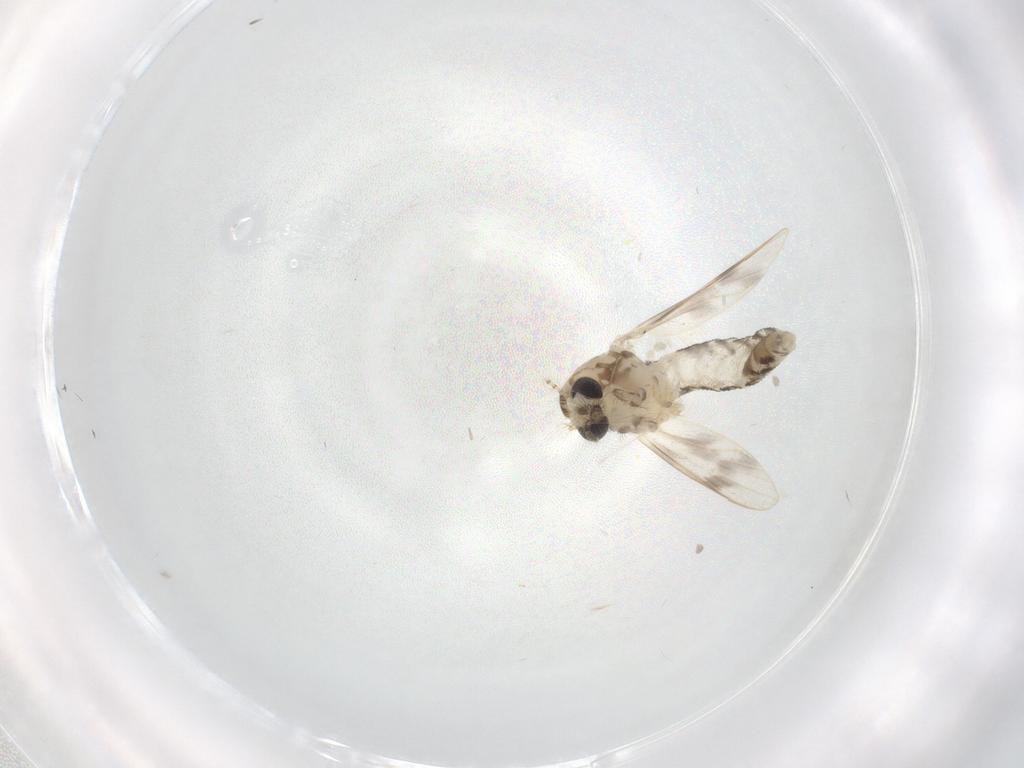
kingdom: Animalia
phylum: Arthropoda
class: Insecta
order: Diptera
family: Corethrellidae
